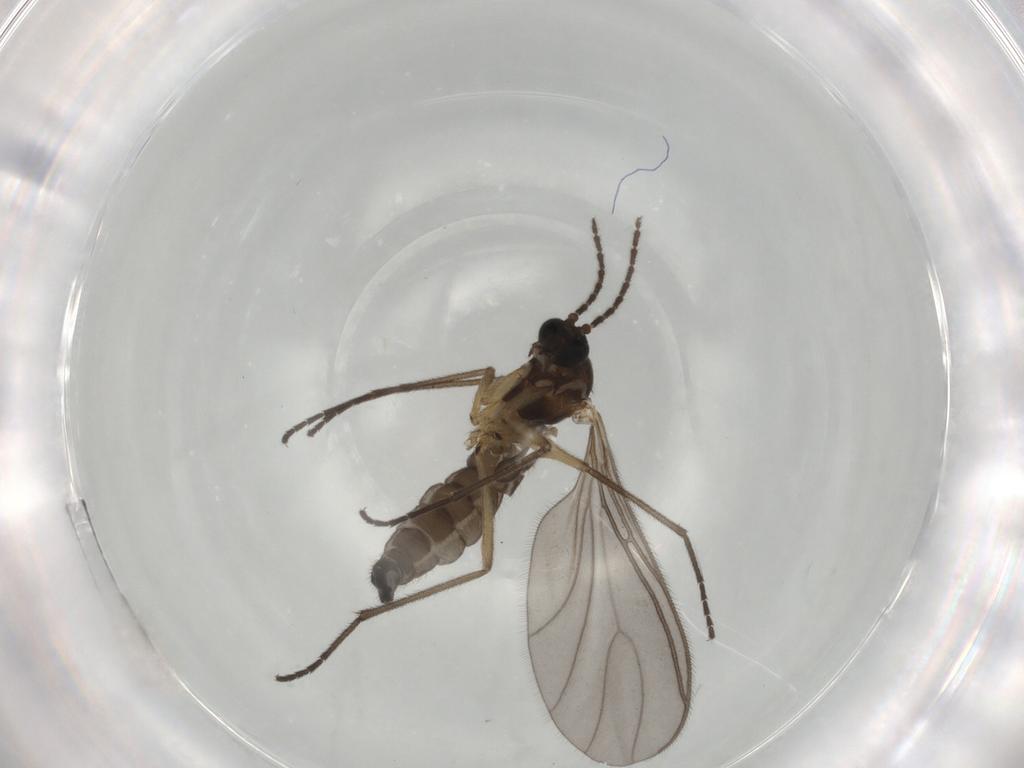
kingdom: Animalia
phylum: Arthropoda
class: Insecta
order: Diptera
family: Sciaridae
